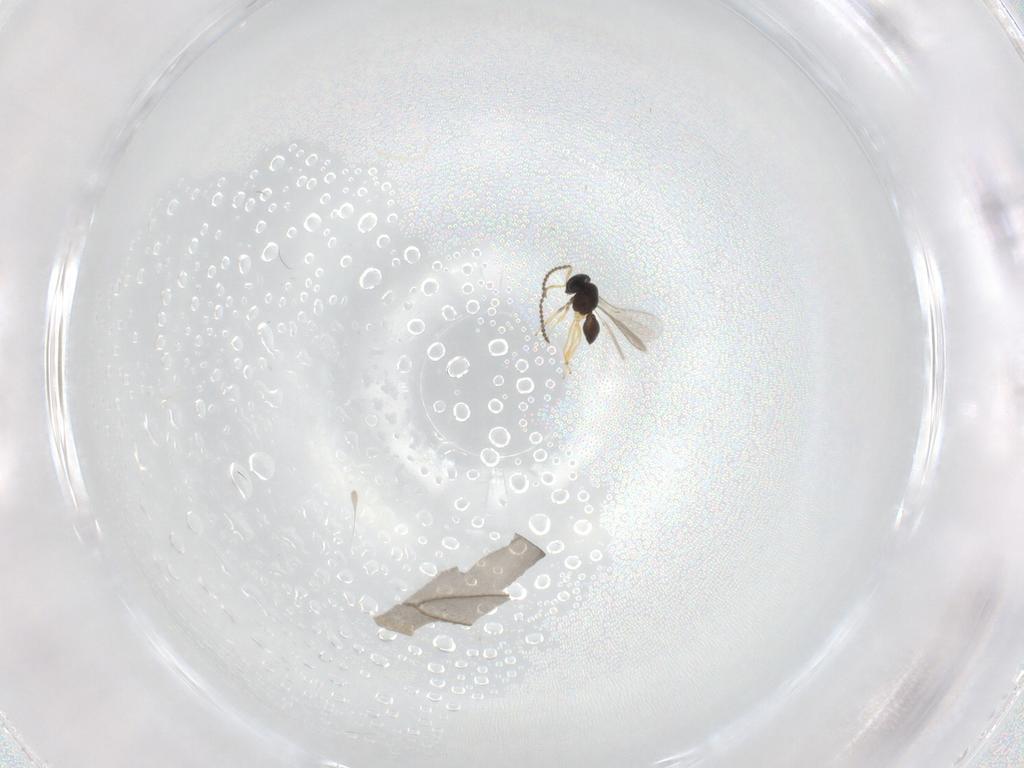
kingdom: Animalia
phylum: Arthropoda
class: Insecta
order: Hymenoptera
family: Scelionidae
